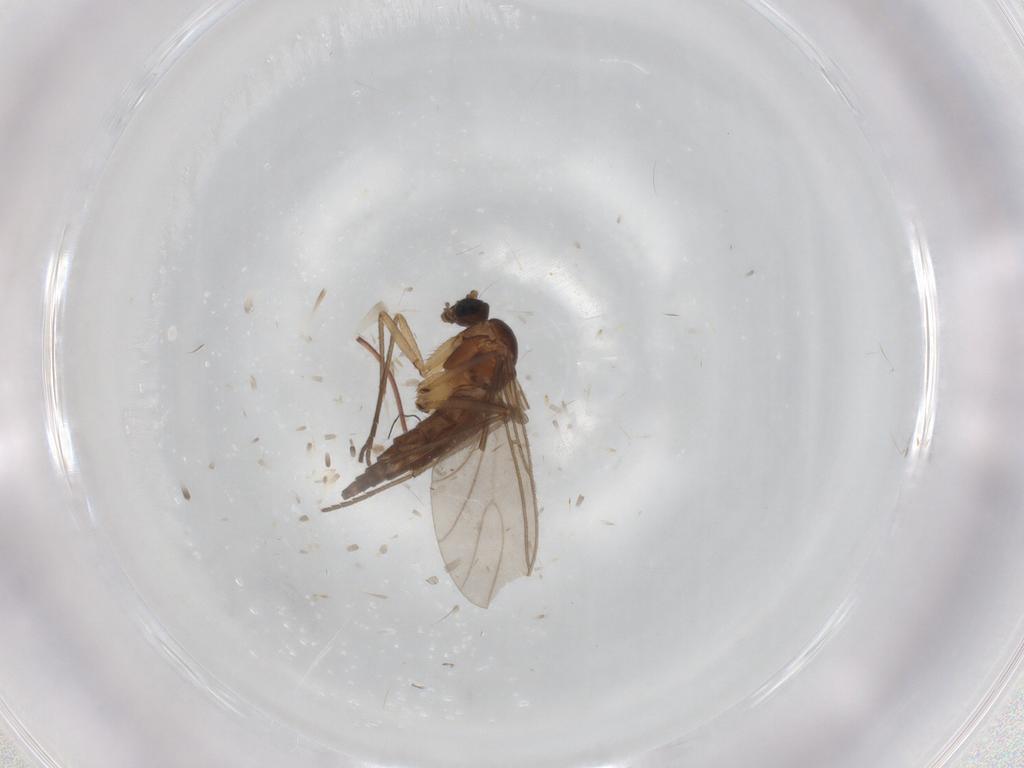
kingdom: Animalia
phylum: Arthropoda
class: Insecta
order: Diptera
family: Sciaridae
